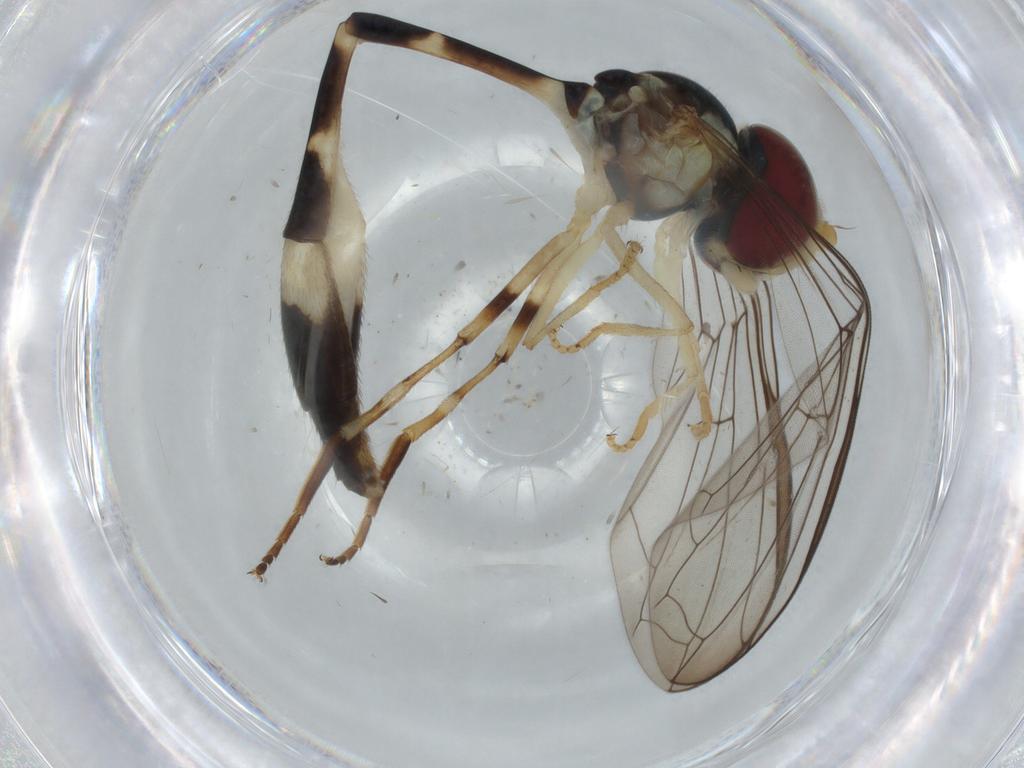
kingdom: Animalia
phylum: Arthropoda
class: Insecta
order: Diptera
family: Syrphidae
